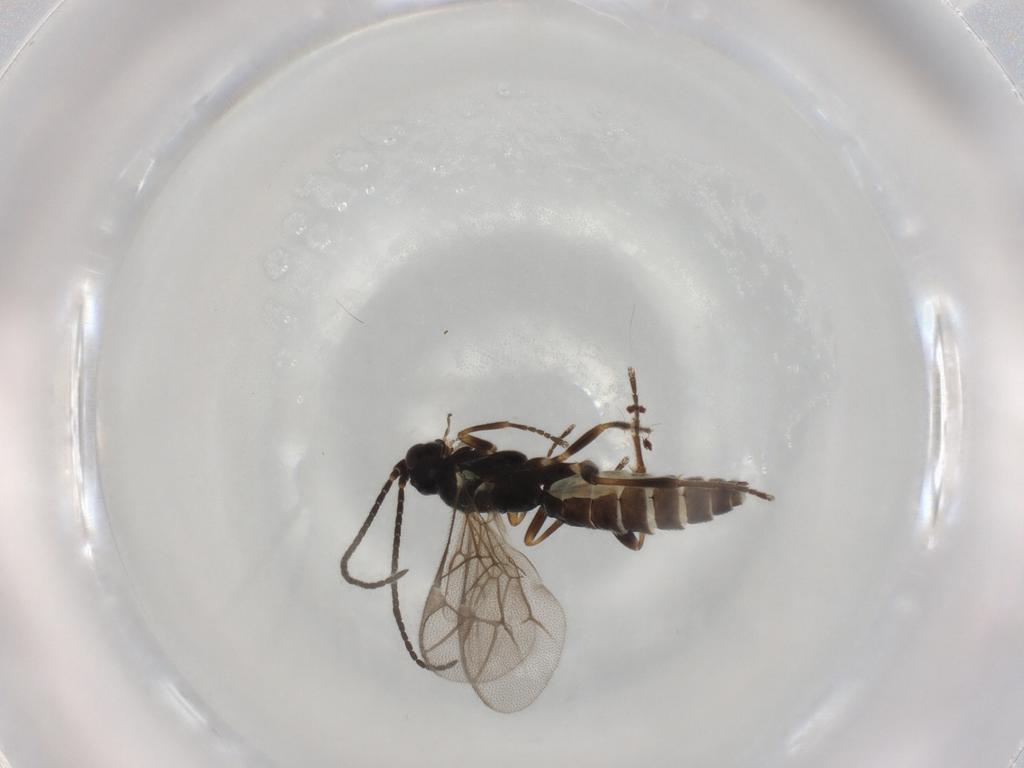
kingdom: Animalia
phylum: Arthropoda
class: Insecta
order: Hymenoptera
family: Ichneumonidae
